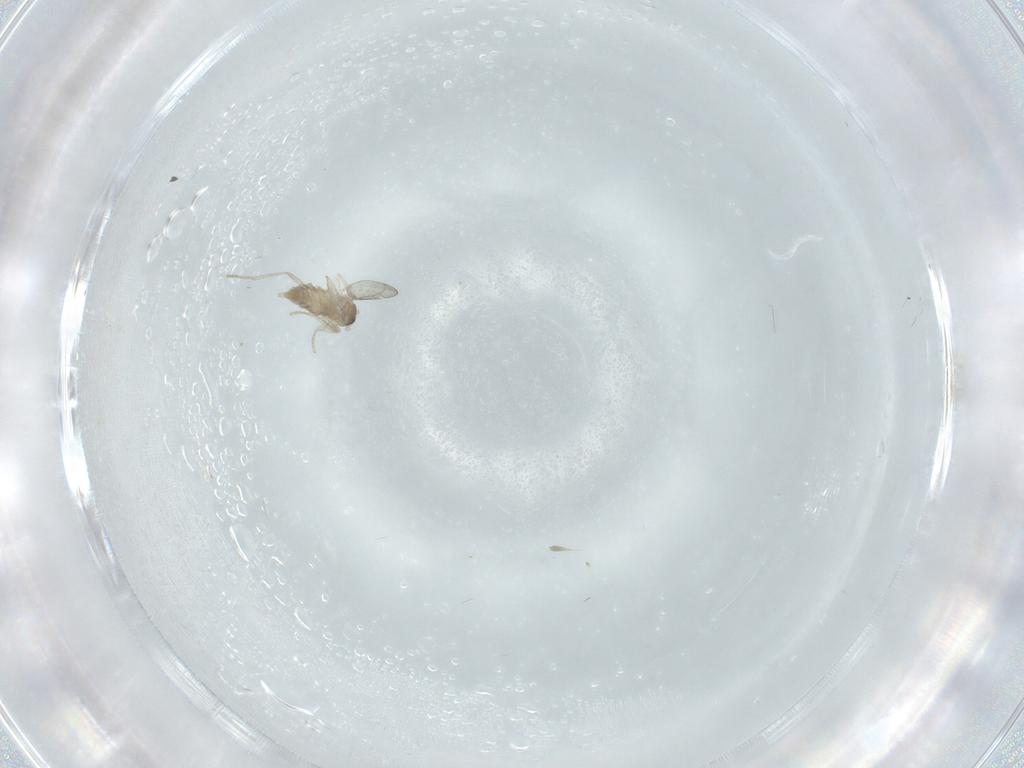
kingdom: Animalia
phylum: Arthropoda
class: Insecta
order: Diptera
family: Cecidomyiidae
